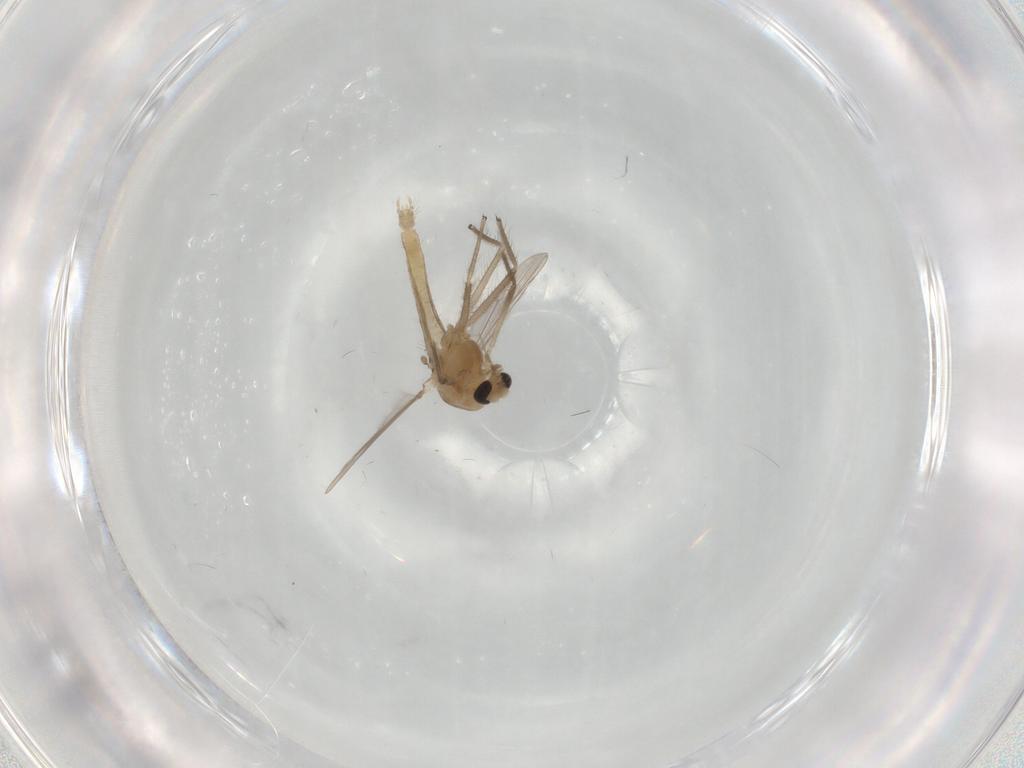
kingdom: Animalia
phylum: Arthropoda
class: Insecta
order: Diptera
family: Chironomidae
